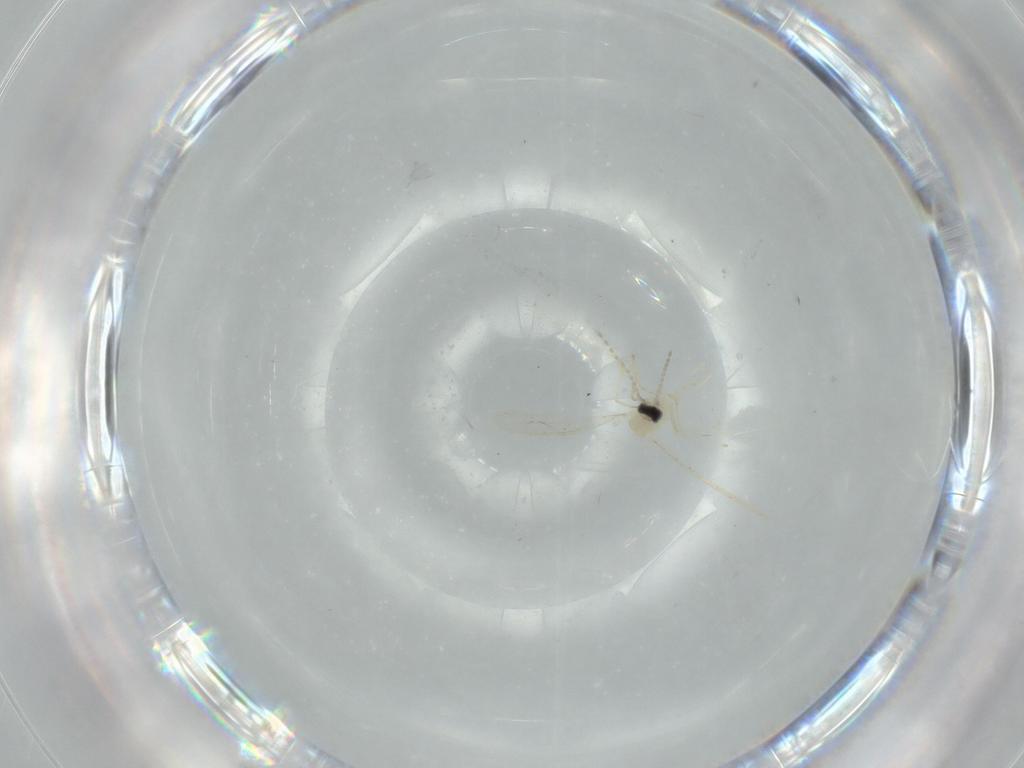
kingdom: Animalia
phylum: Arthropoda
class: Insecta
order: Diptera
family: Cecidomyiidae
